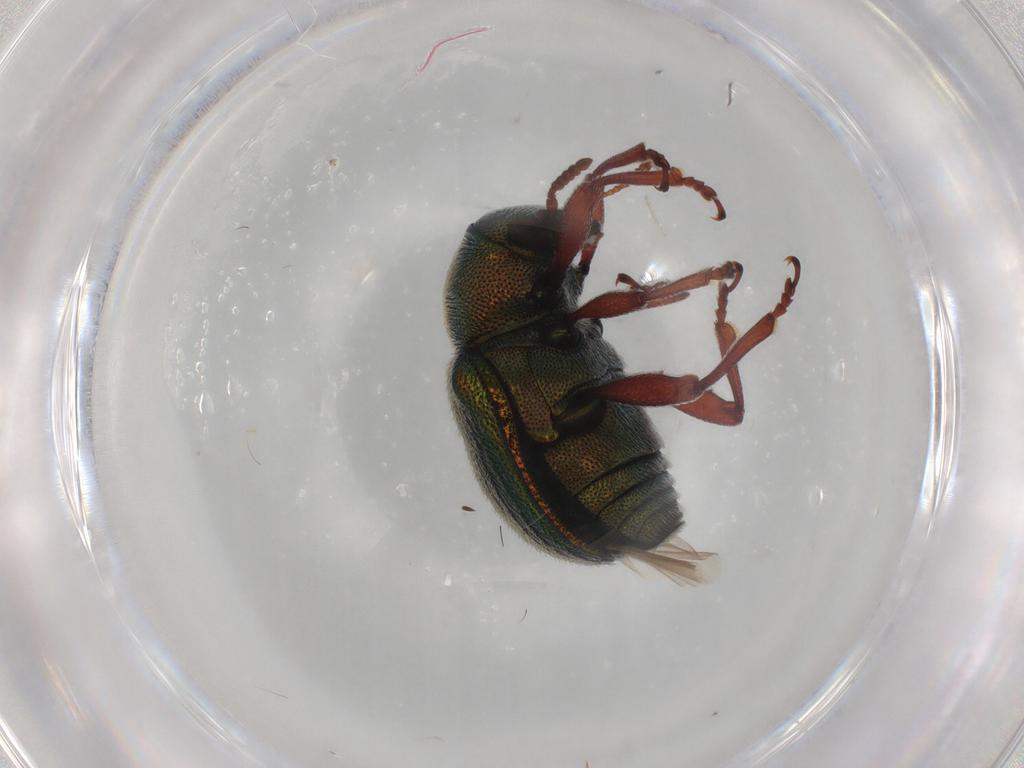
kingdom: Animalia
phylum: Arthropoda
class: Insecta
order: Coleoptera
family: Chrysomelidae
